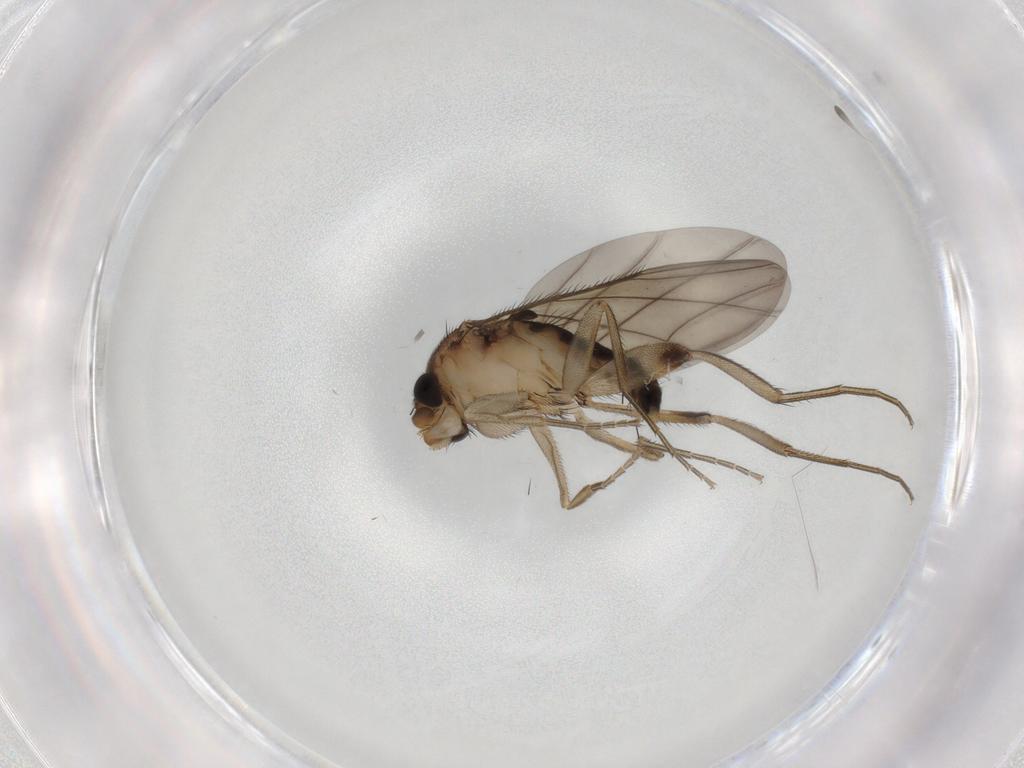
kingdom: Animalia
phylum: Arthropoda
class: Insecta
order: Diptera
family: Phoridae
